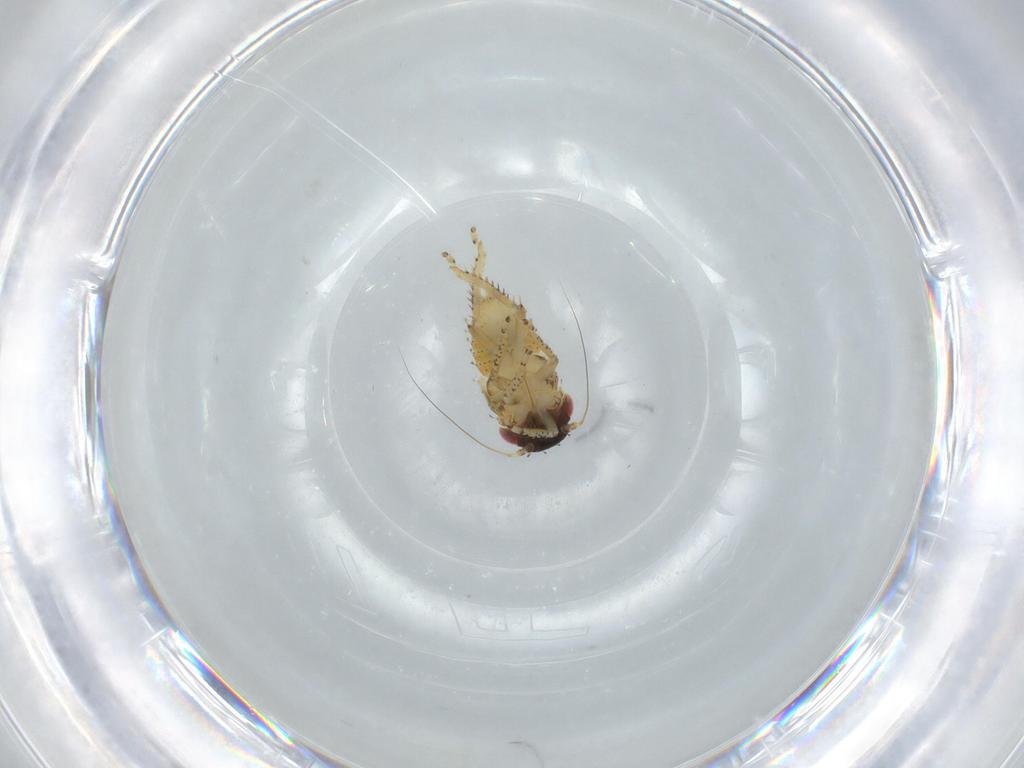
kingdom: Animalia
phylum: Arthropoda
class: Insecta
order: Hemiptera
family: Cicadellidae
